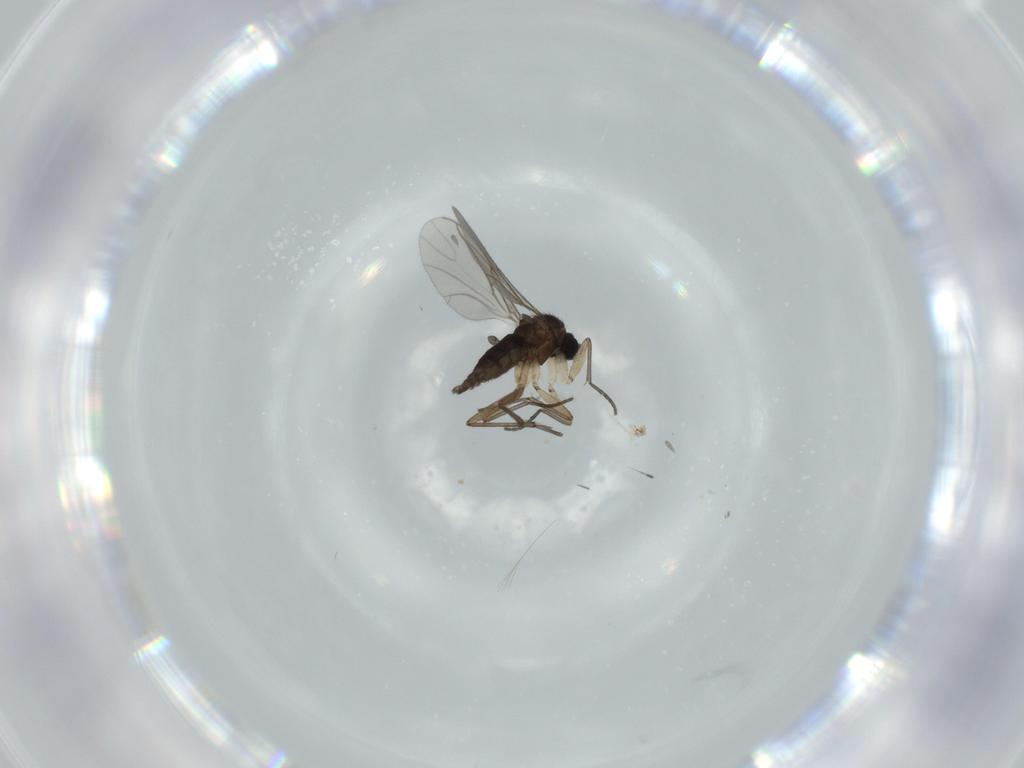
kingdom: Animalia
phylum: Arthropoda
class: Insecta
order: Diptera
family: Sciaridae
